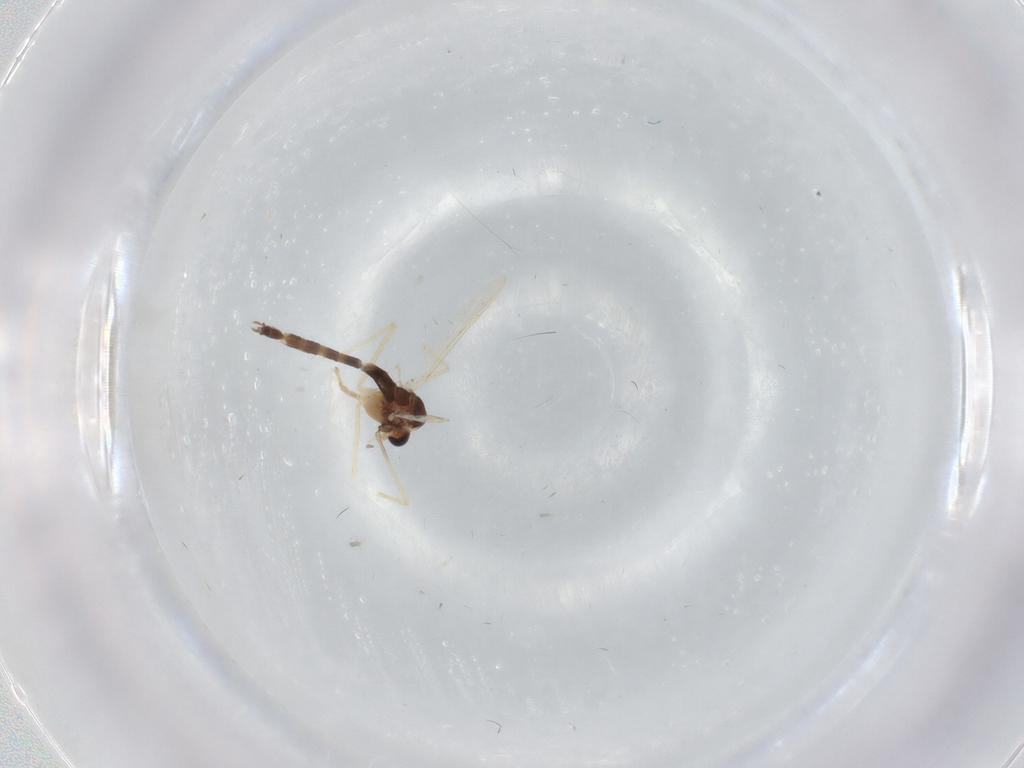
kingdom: Animalia
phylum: Arthropoda
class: Insecta
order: Diptera
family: Chironomidae
